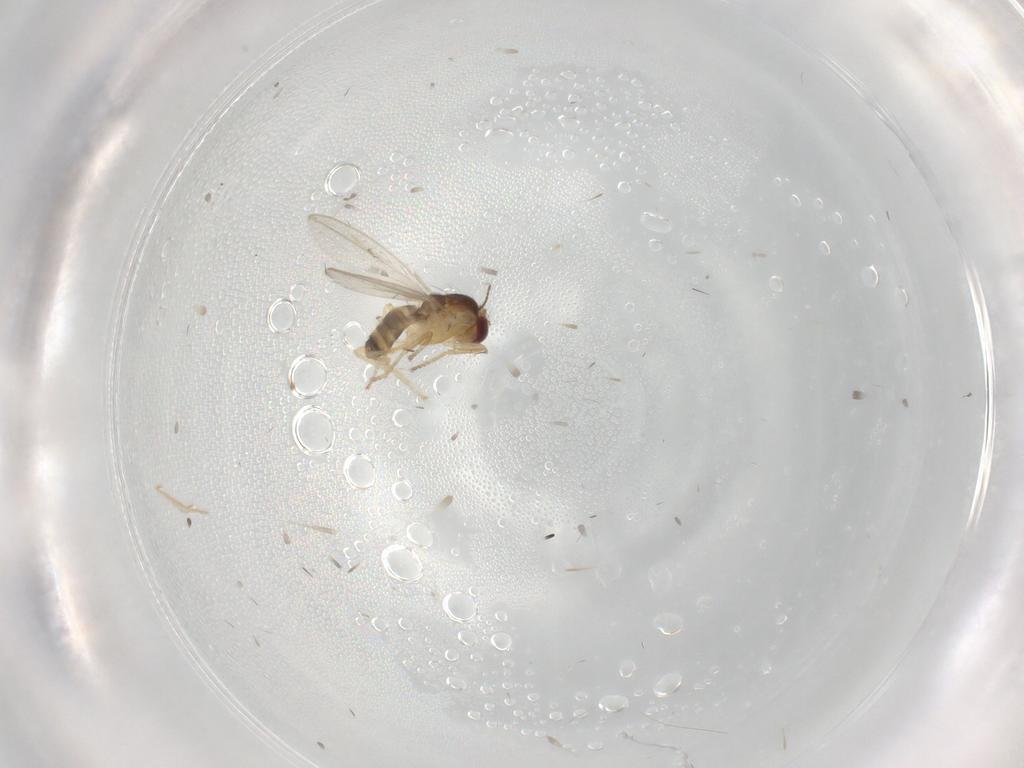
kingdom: Animalia
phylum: Arthropoda
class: Insecta
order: Diptera
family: Ceratopogonidae
